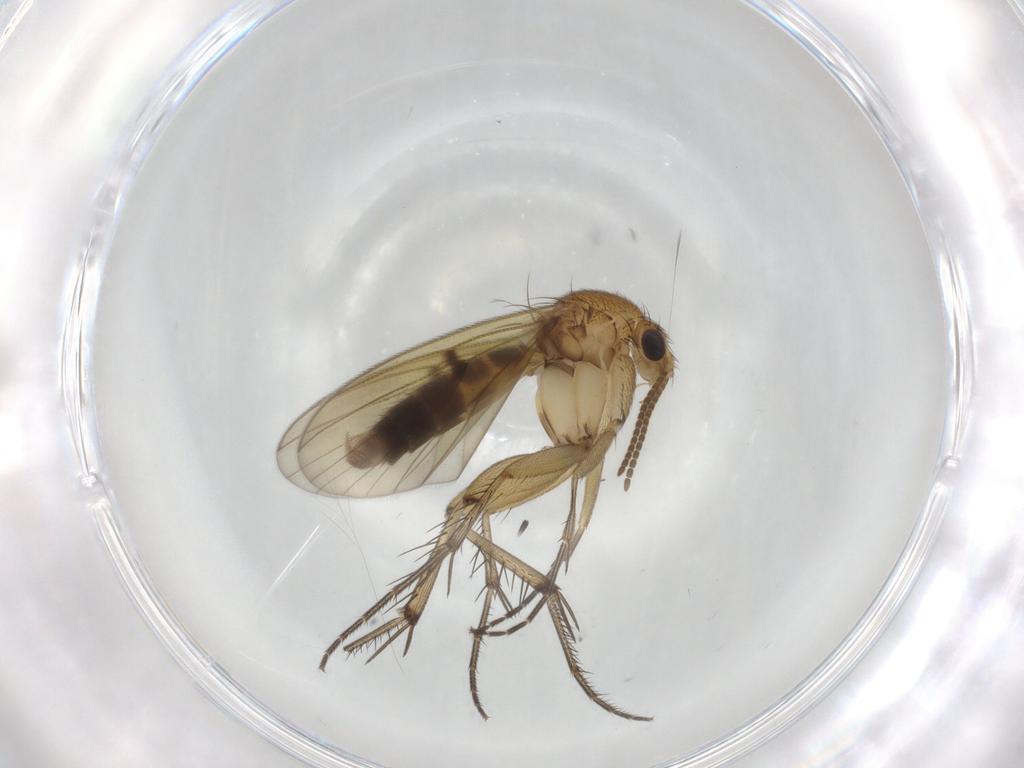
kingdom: Animalia
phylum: Arthropoda
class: Insecta
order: Diptera
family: Mycetophilidae
